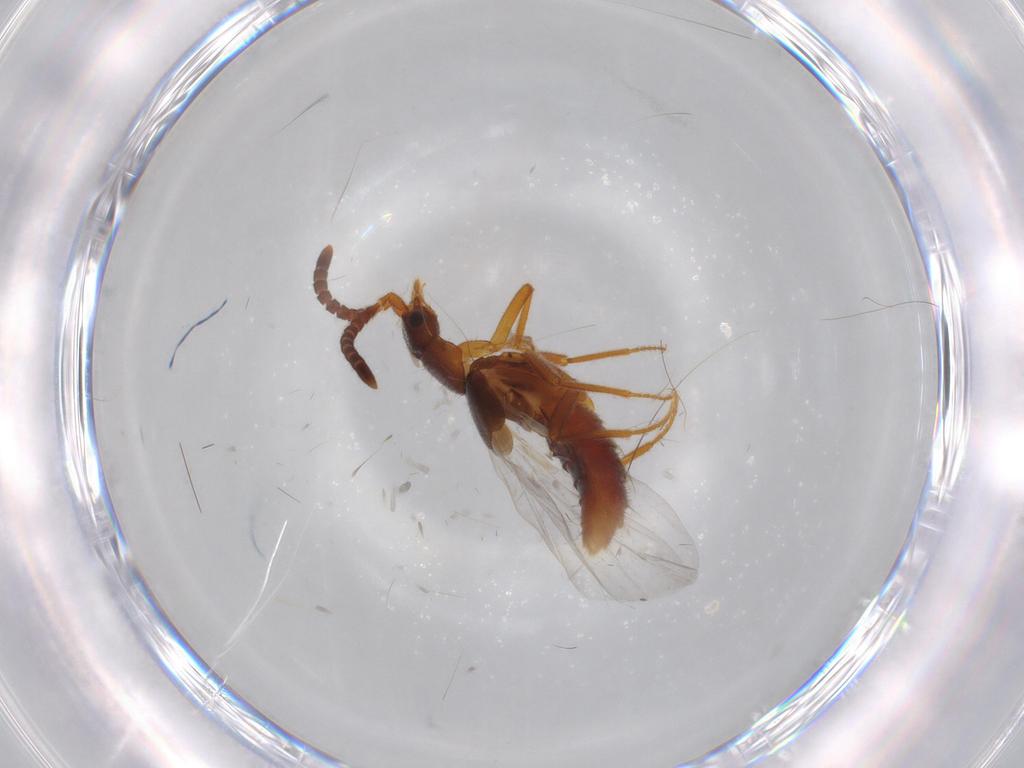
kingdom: Animalia
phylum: Arthropoda
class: Insecta
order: Coleoptera
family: Staphylinidae
